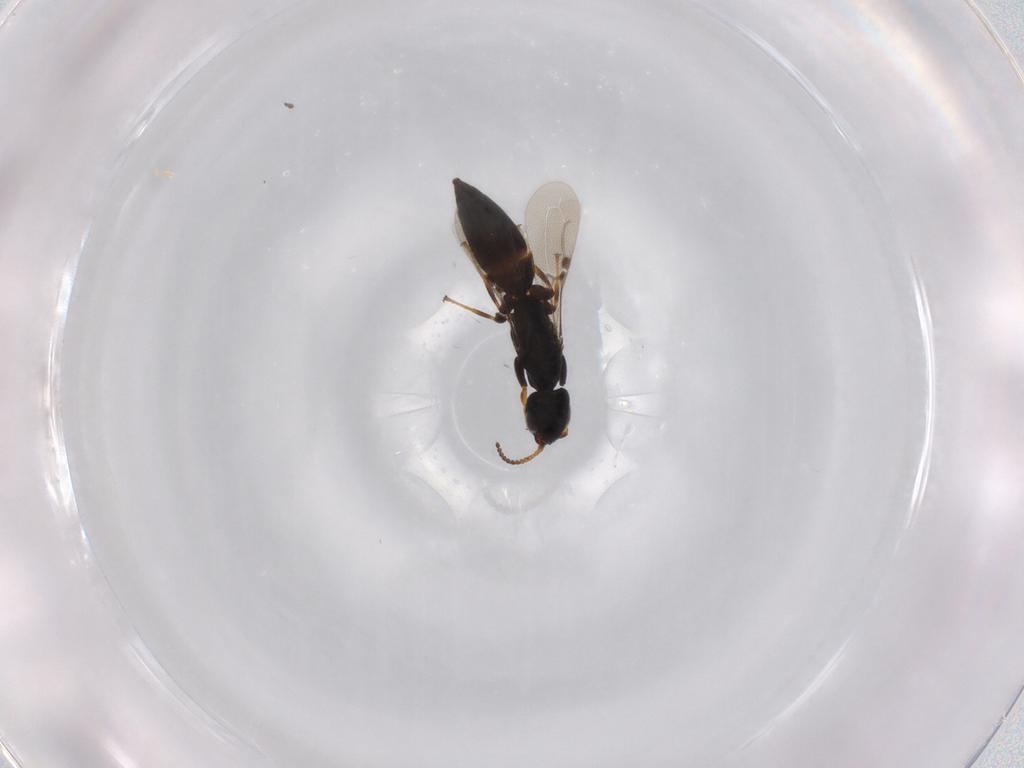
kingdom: Animalia
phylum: Arthropoda
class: Insecta
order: Hymenoptera
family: Bethylidae
